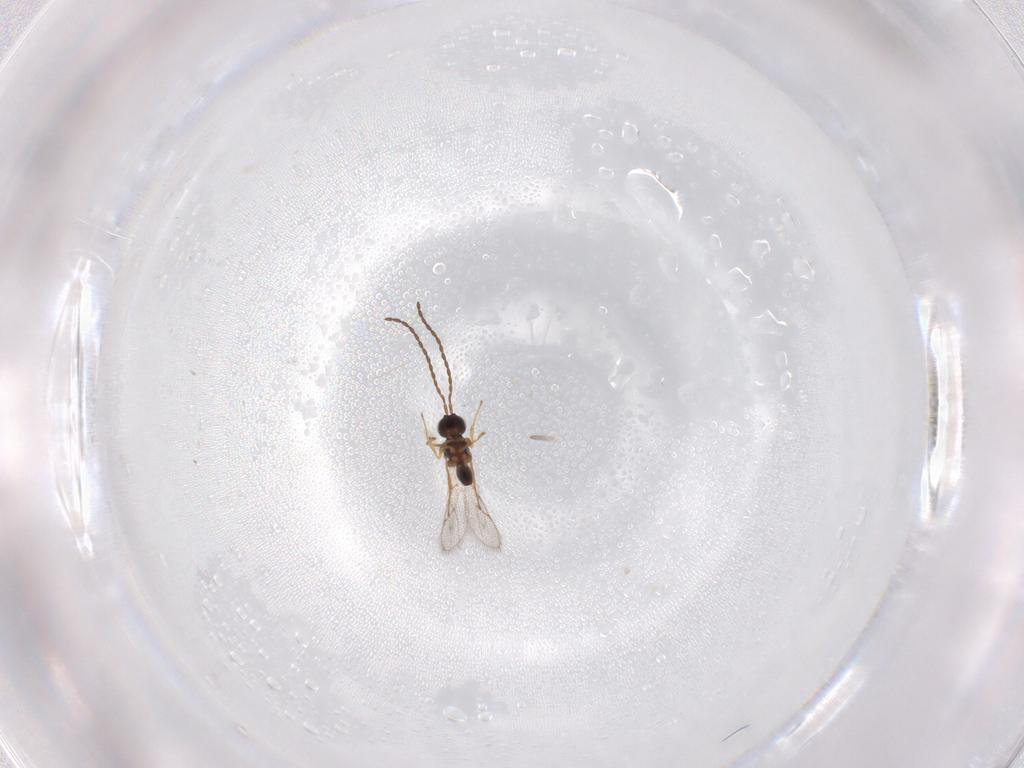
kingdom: Animalia
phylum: Arthropoda
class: Insecta
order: Hymenoptera
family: Figitidae
